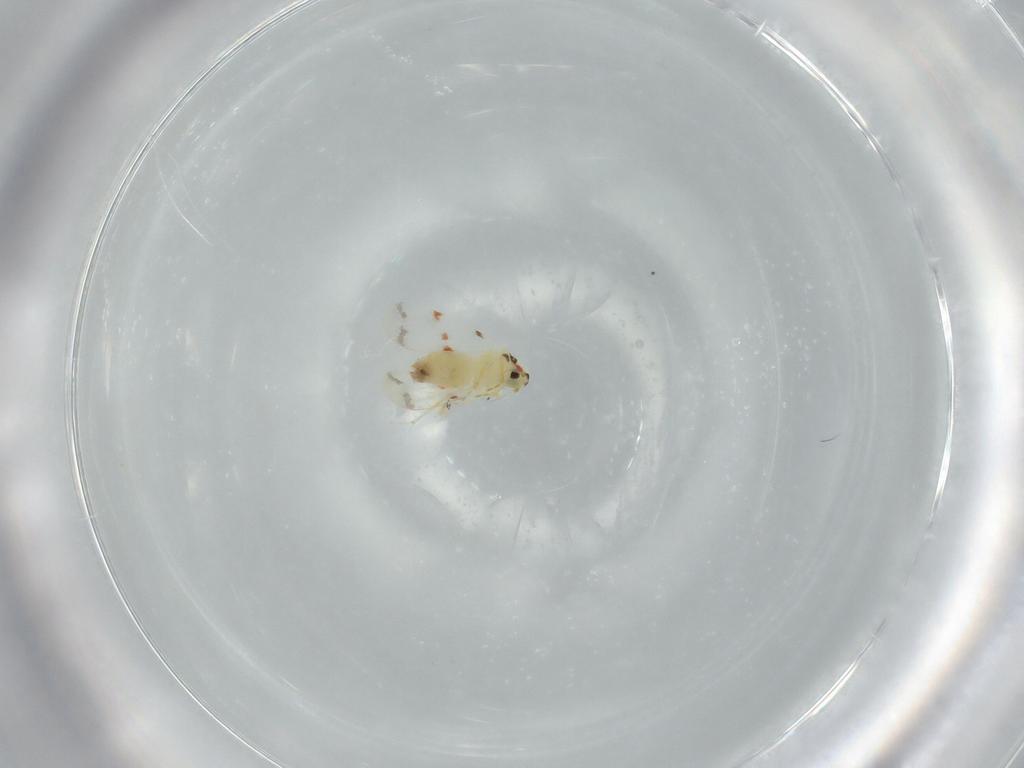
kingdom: Animalia
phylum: Arthropoda
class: Insecta
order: Hemiptera
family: Aleyrodidae
